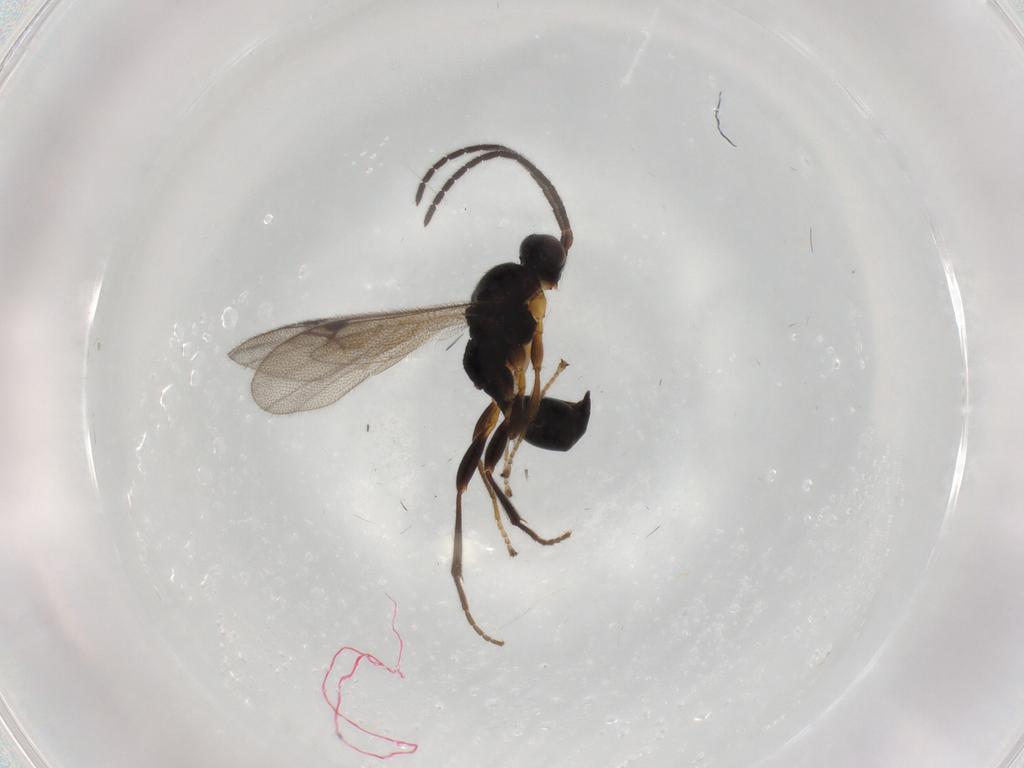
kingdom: Animalia
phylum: Arthropoda
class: Insecta
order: Hymenoptera
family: Proctotrupidae
